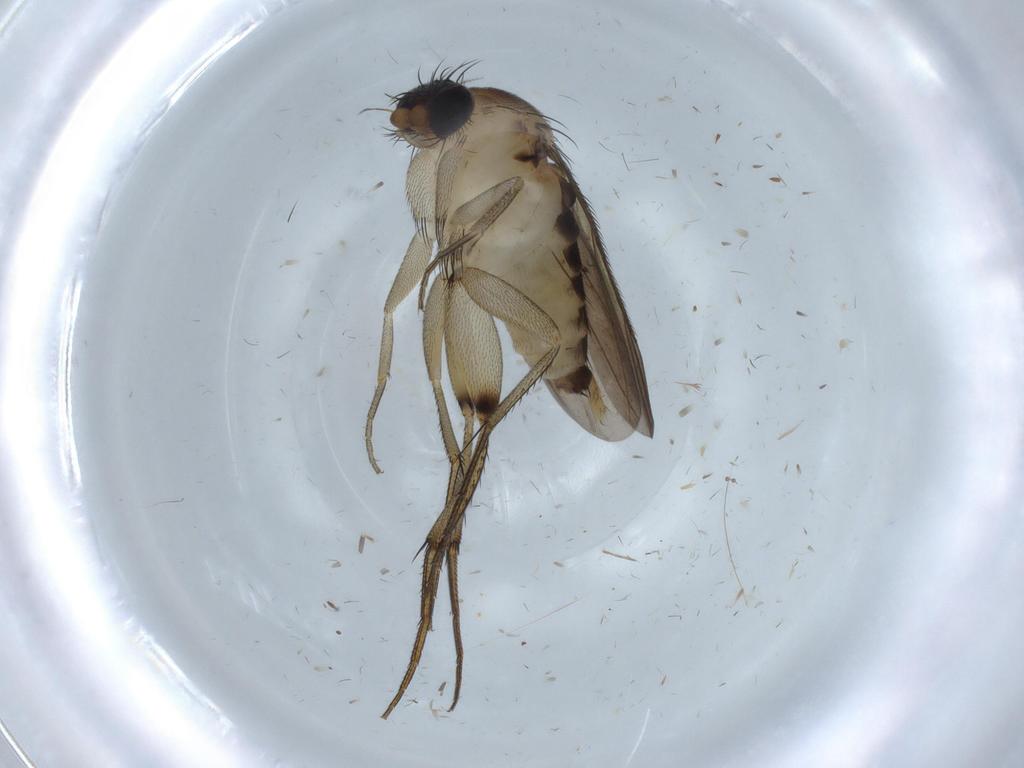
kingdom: Animalia
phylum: Arthropoda
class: Insecta
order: Diptera
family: Phoridae
